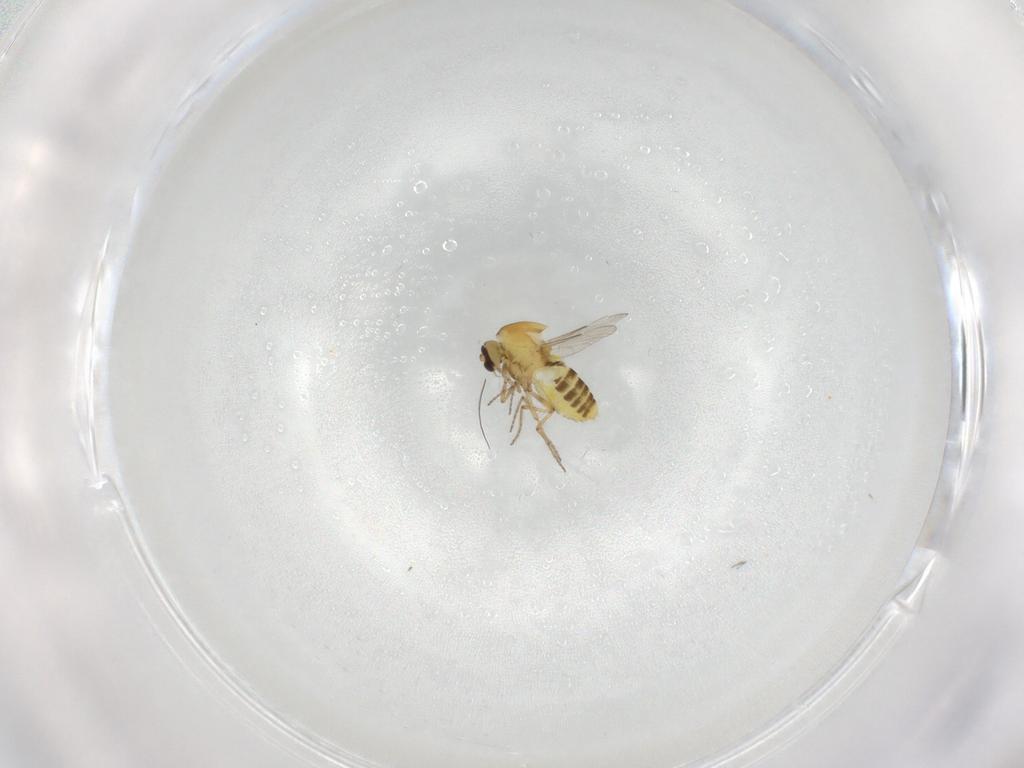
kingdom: Animalia
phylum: Arthropoda
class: Insecta
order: Diptera
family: Ceratopogonidae
